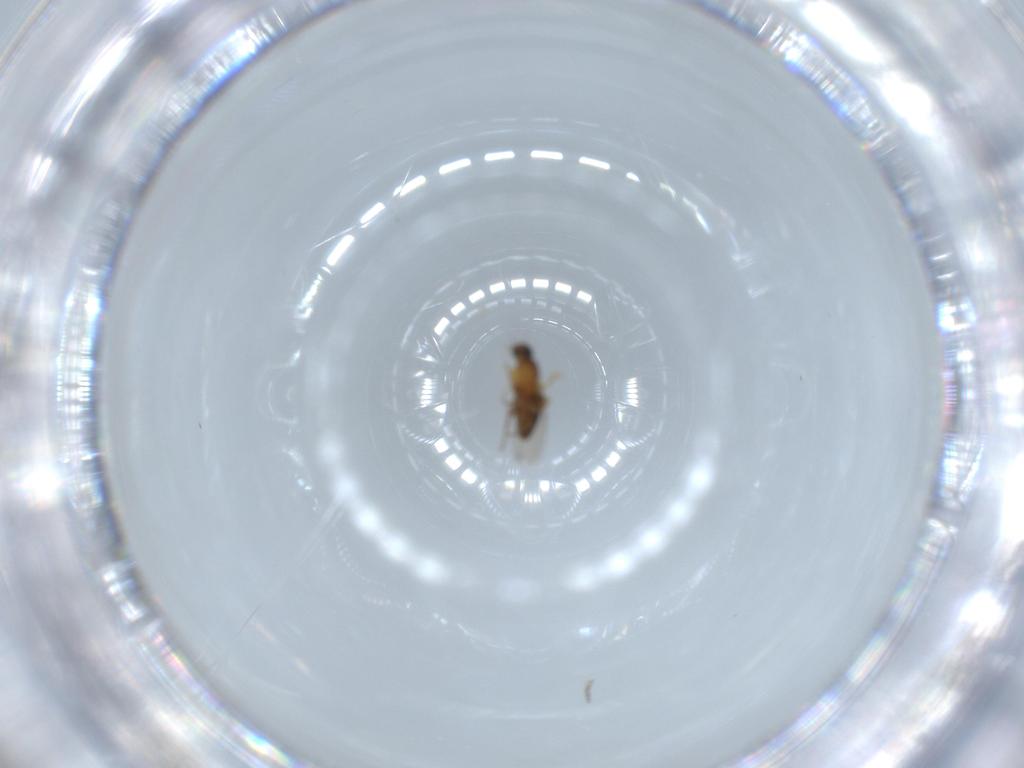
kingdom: Animalia
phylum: Arthropoda
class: Insecta
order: Diptera
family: Phoridae
